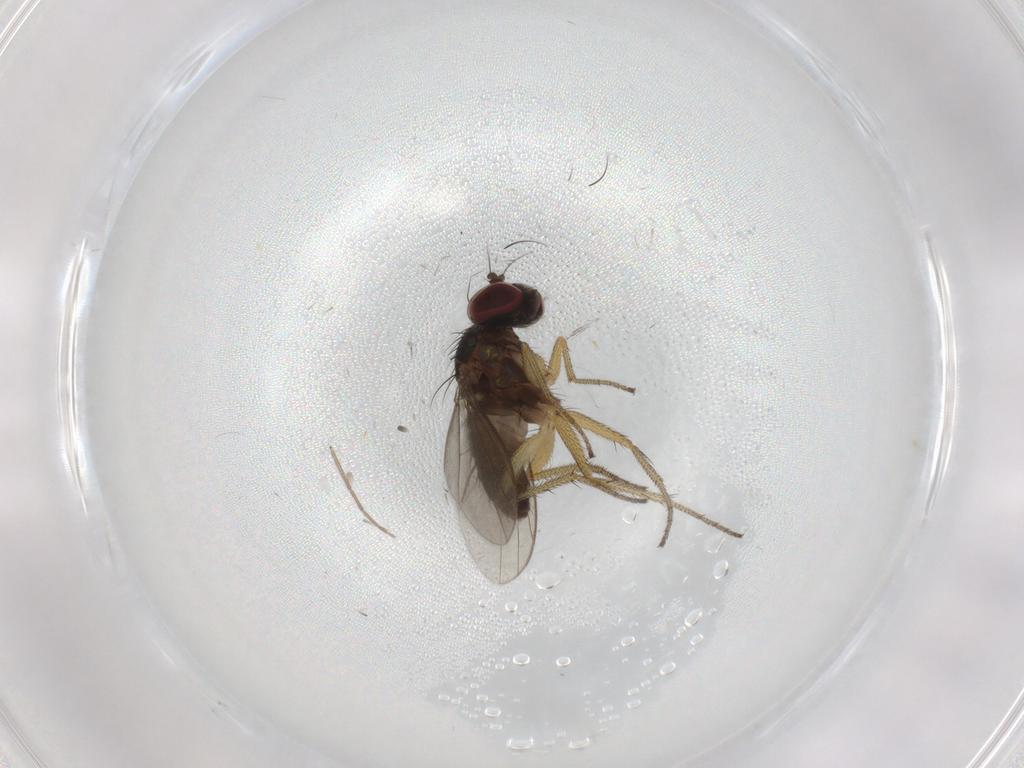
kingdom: Animalia
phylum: Arthropoda
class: Insecta
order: Diptera
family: Chironomidae
